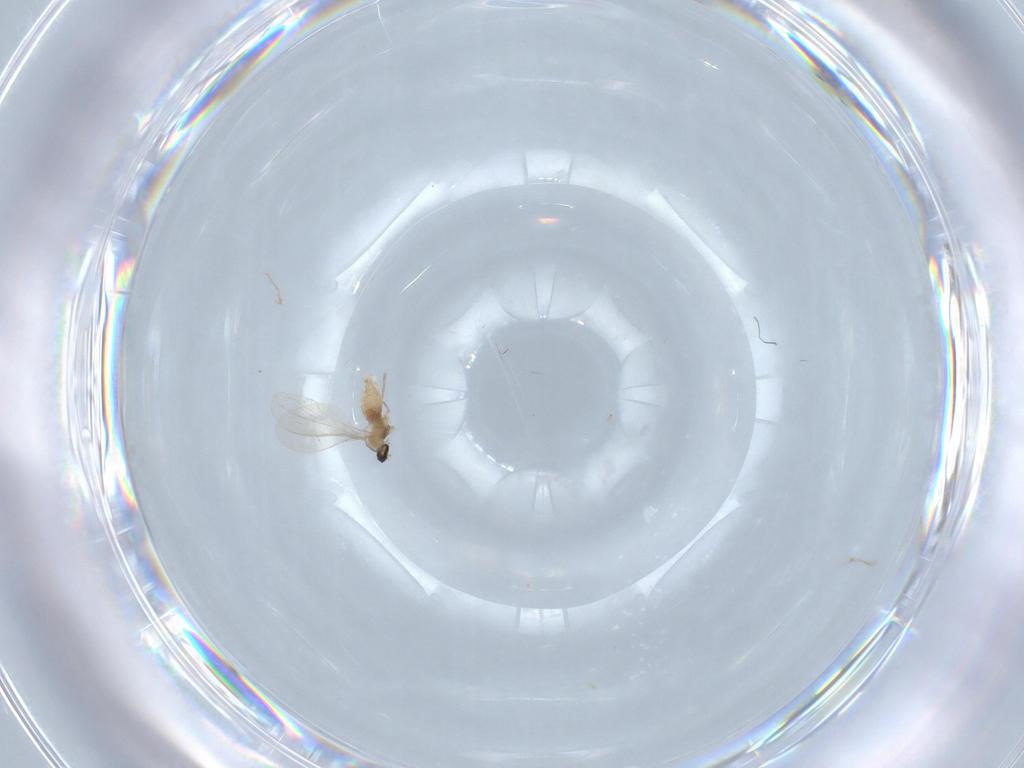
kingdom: Animalia
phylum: Arthropoda
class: Insecta
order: Diptera
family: Cecidomyiidae
